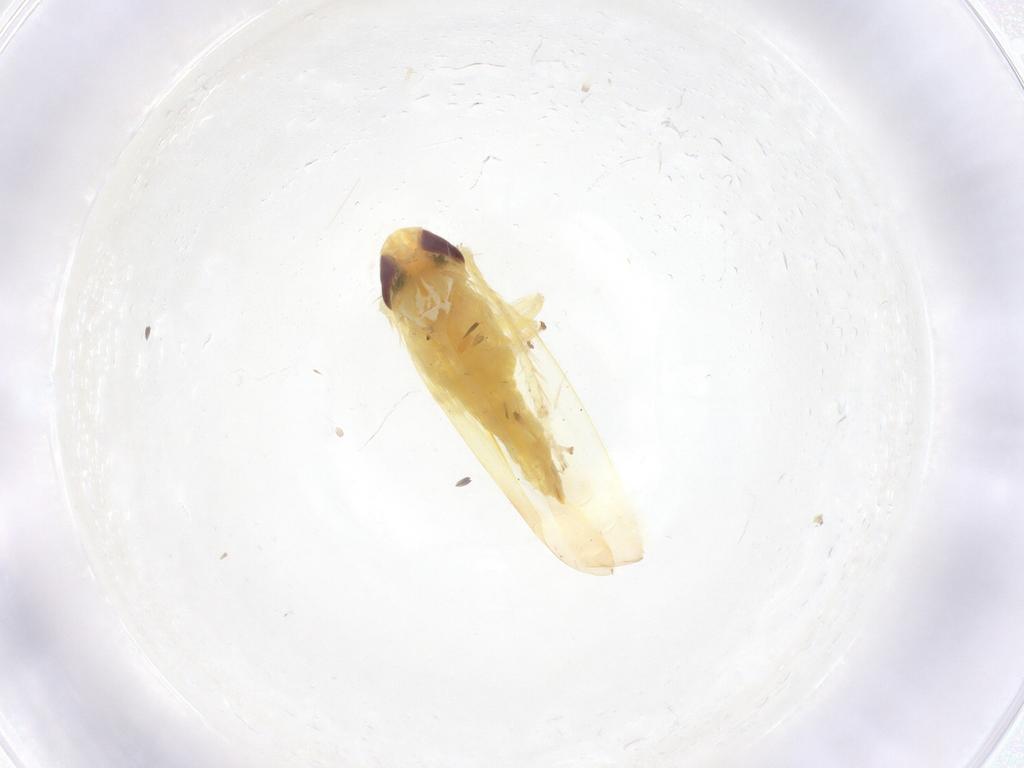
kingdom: Animalia
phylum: Arthropoda
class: Insecta
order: Hemiptera
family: Cicadellidae
